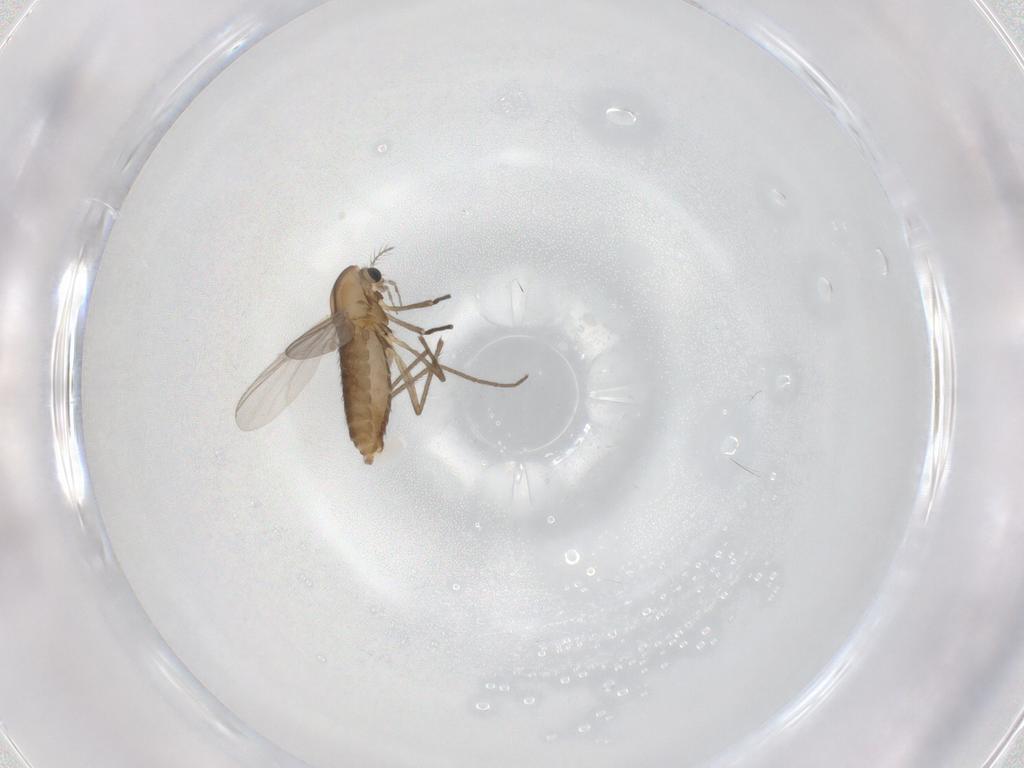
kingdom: Animalia
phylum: Arthropoda
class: Insecta
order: Diptera
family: Chironomidae
